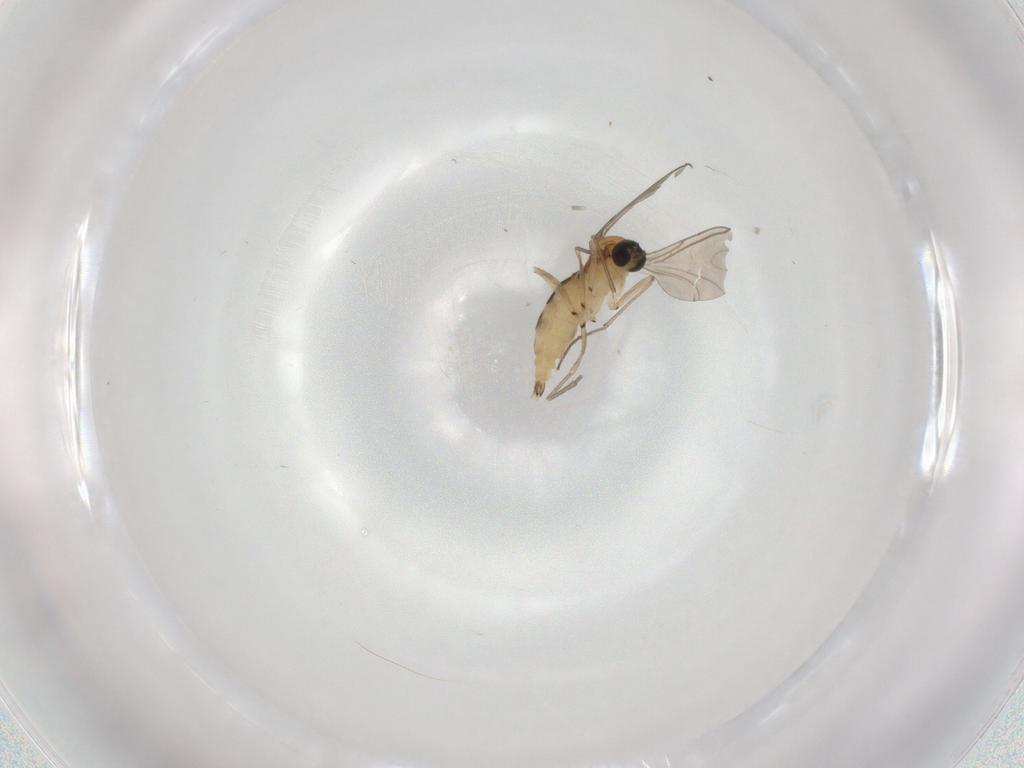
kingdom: Animalia
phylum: Arthropoda
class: Insecta
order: Diptera
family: Sciaridae
